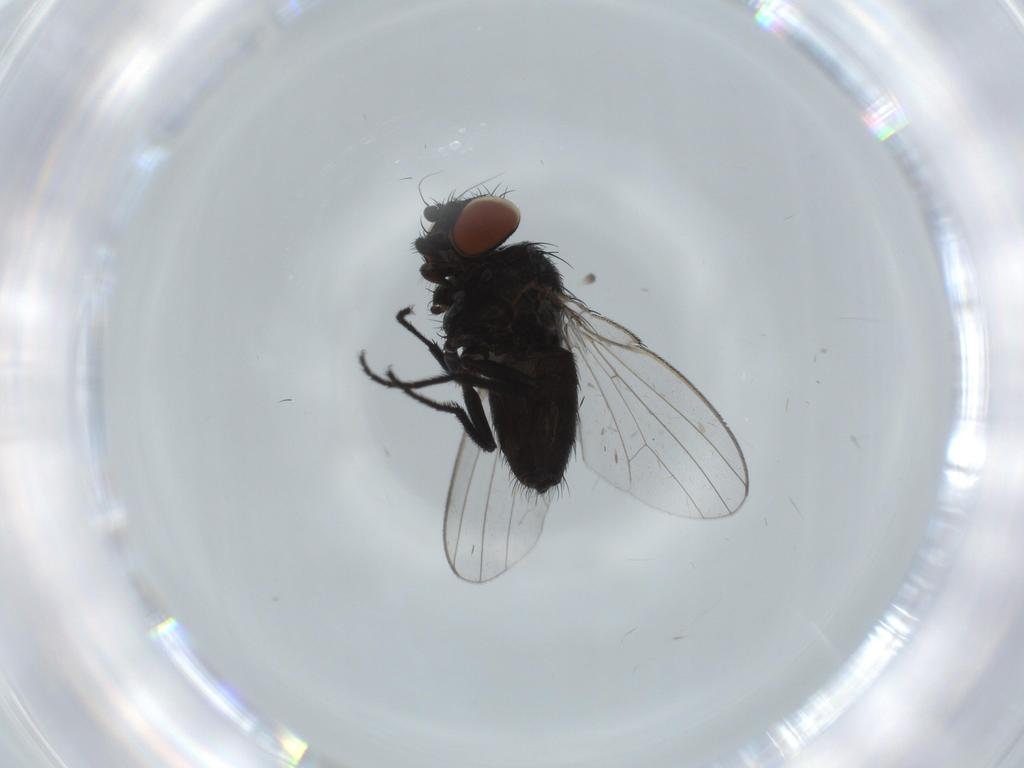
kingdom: Animalia
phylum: Arthropoda
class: Insecta
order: Diptera
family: Milichiidae
